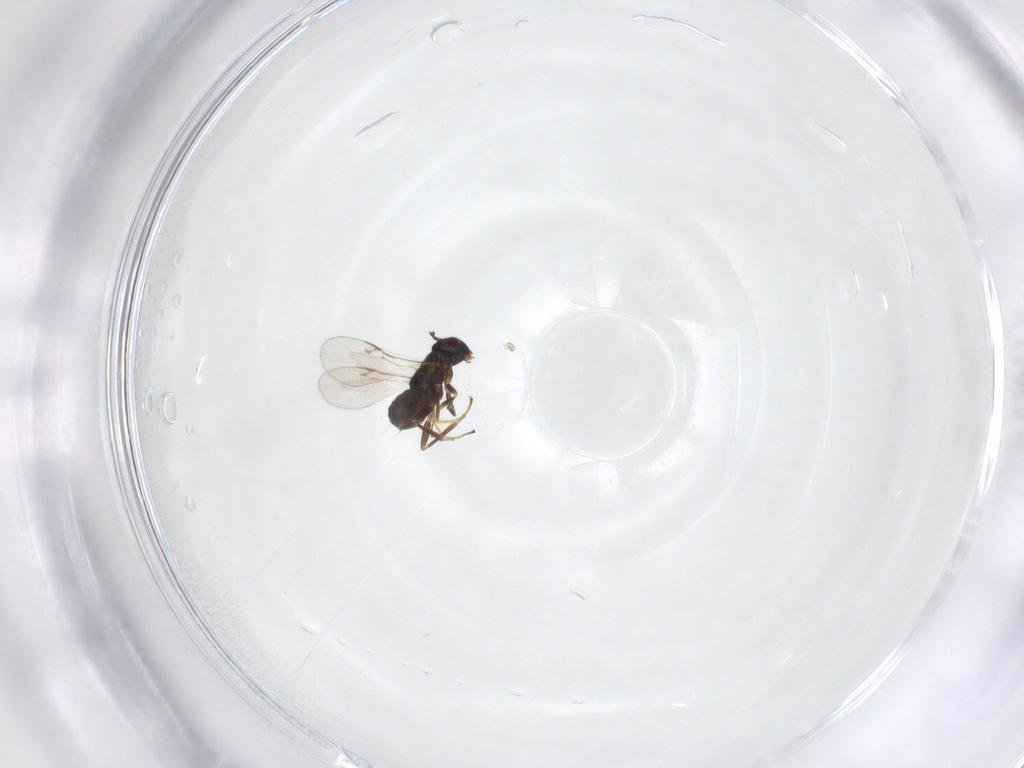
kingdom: Animalia
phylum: Arthropoda
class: Insecta
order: Hymenoptera
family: Encyrtidae
